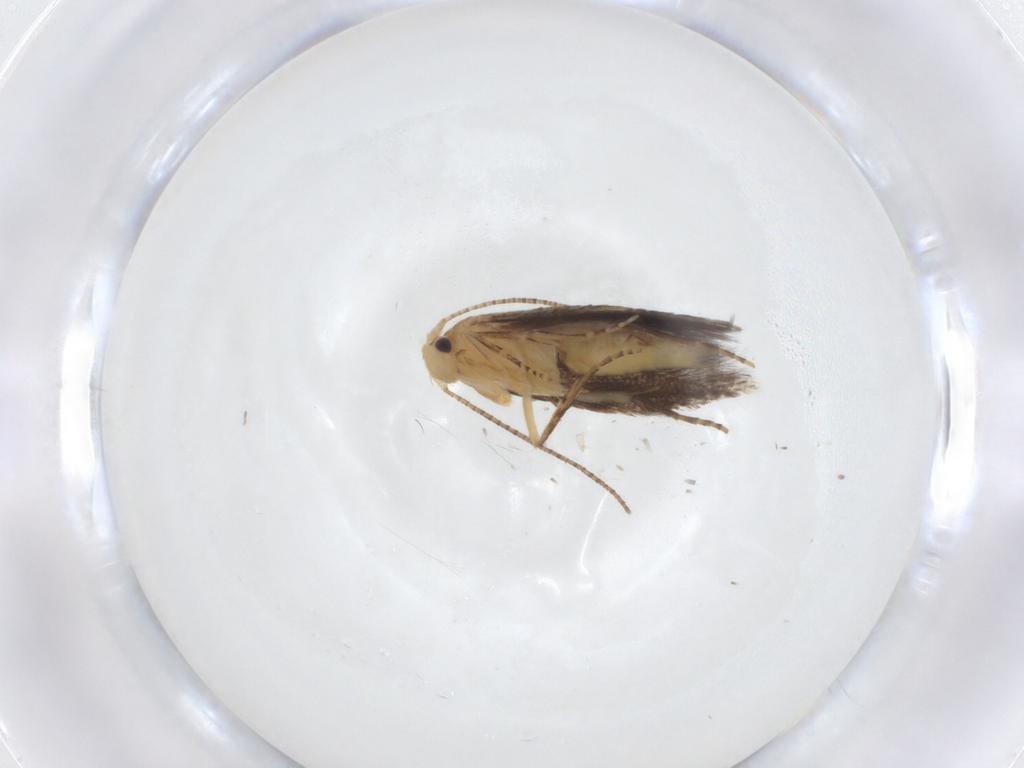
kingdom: Animalia
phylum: Arthropoda
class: Insecta
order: Lepidoptera
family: Bucculatricidae
